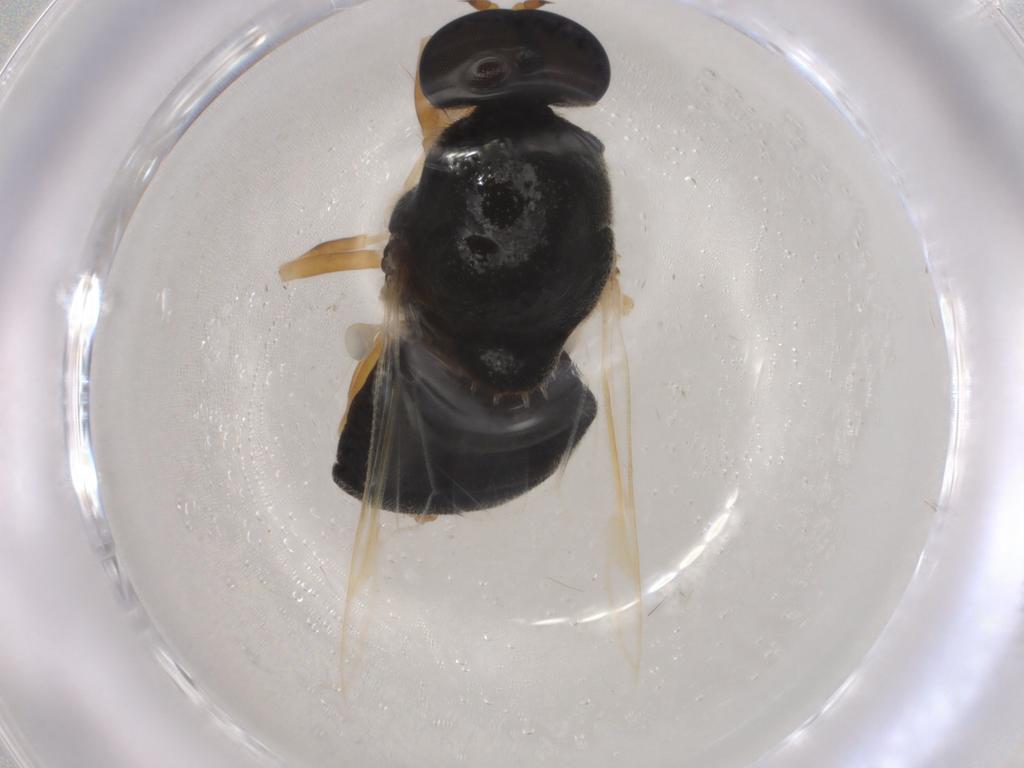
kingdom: Animalia
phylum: Arthropoda
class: Insecta
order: Diptera
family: Stratiomyidae
